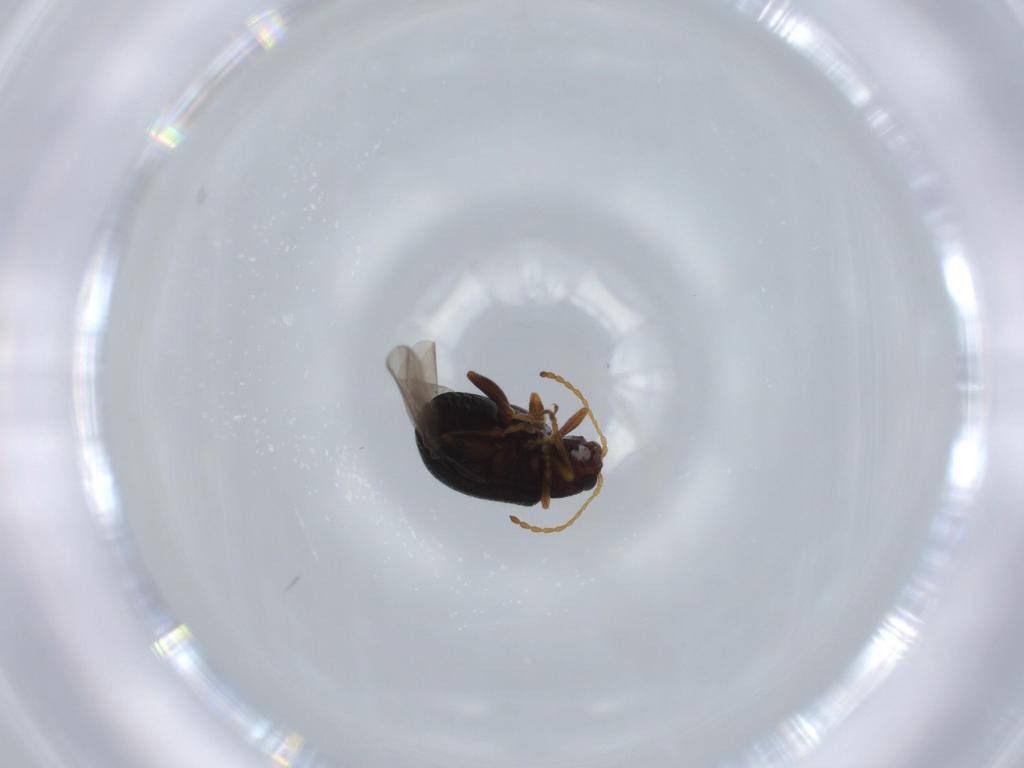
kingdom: Animalia
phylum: Arthropoda
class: Insecta
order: Coleoptera
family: Chrysomelidae
